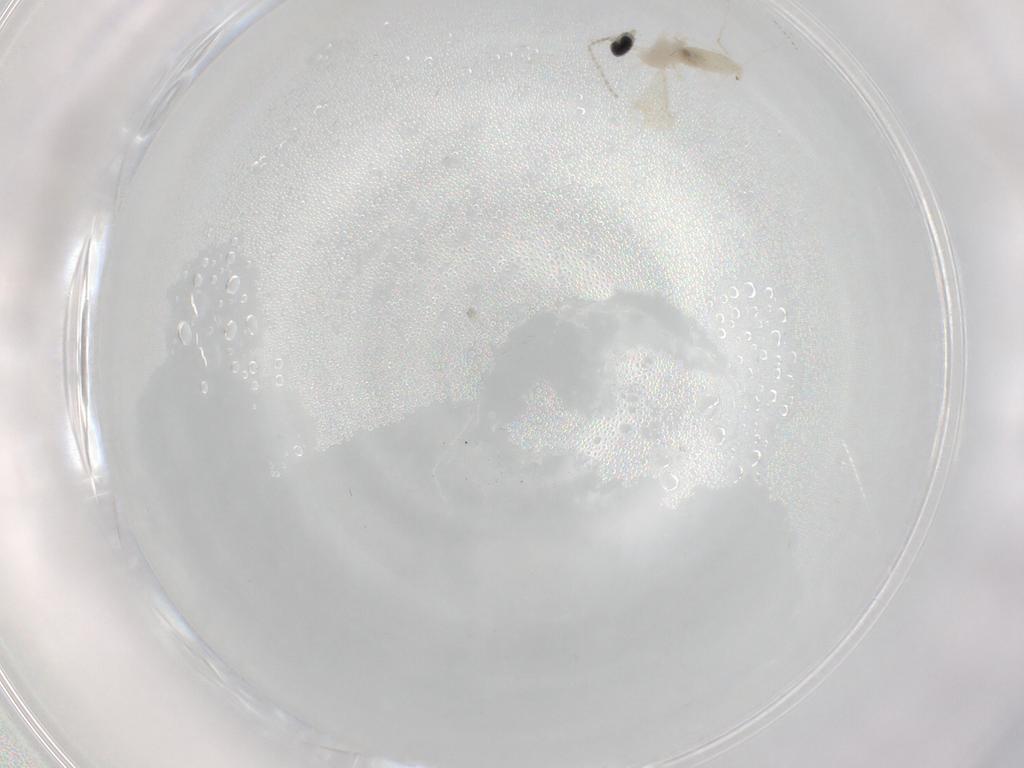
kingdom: Animalia
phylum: Arthropoda
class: Insecta
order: Diptera
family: Cecidomyiidae
